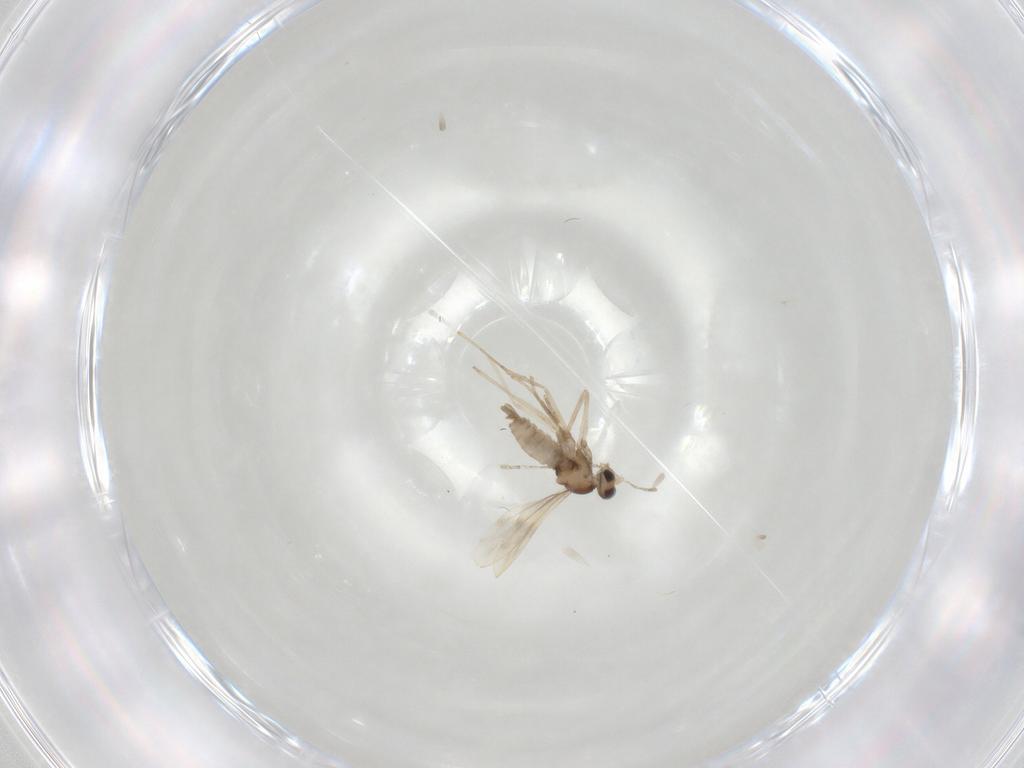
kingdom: Animalia
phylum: Arthropoda
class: Insecta
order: Diptera
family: Cecidomyiidae
